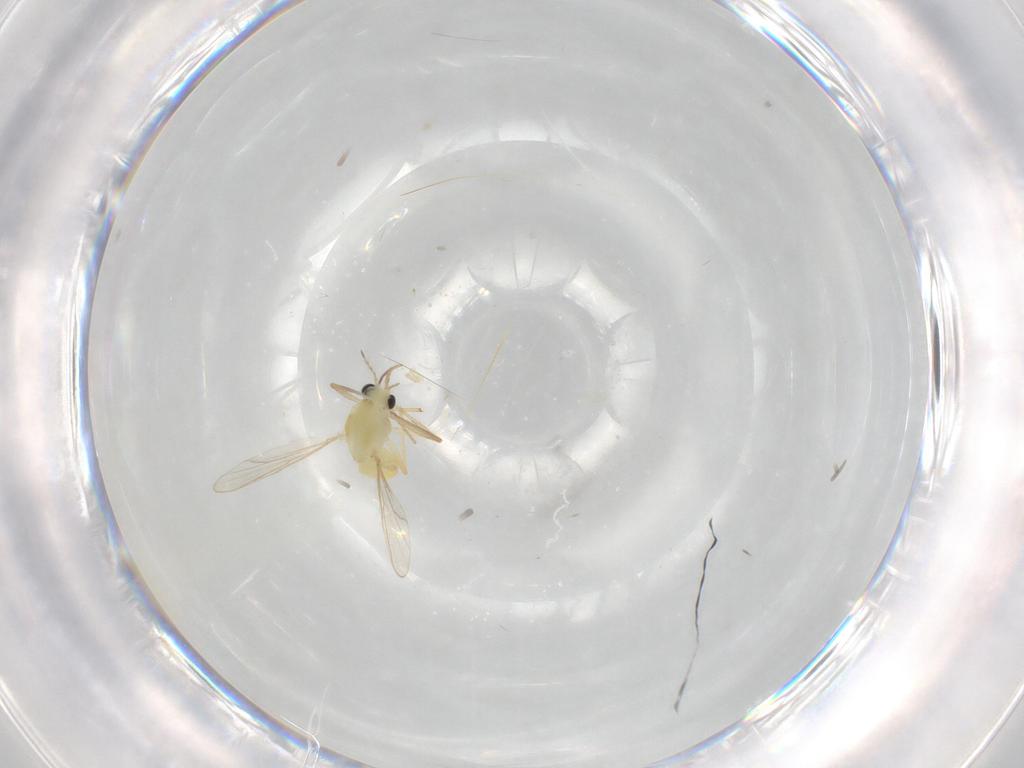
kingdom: Animalia
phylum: Arthropoda
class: Insecta
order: Diptera
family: Chironomidae
